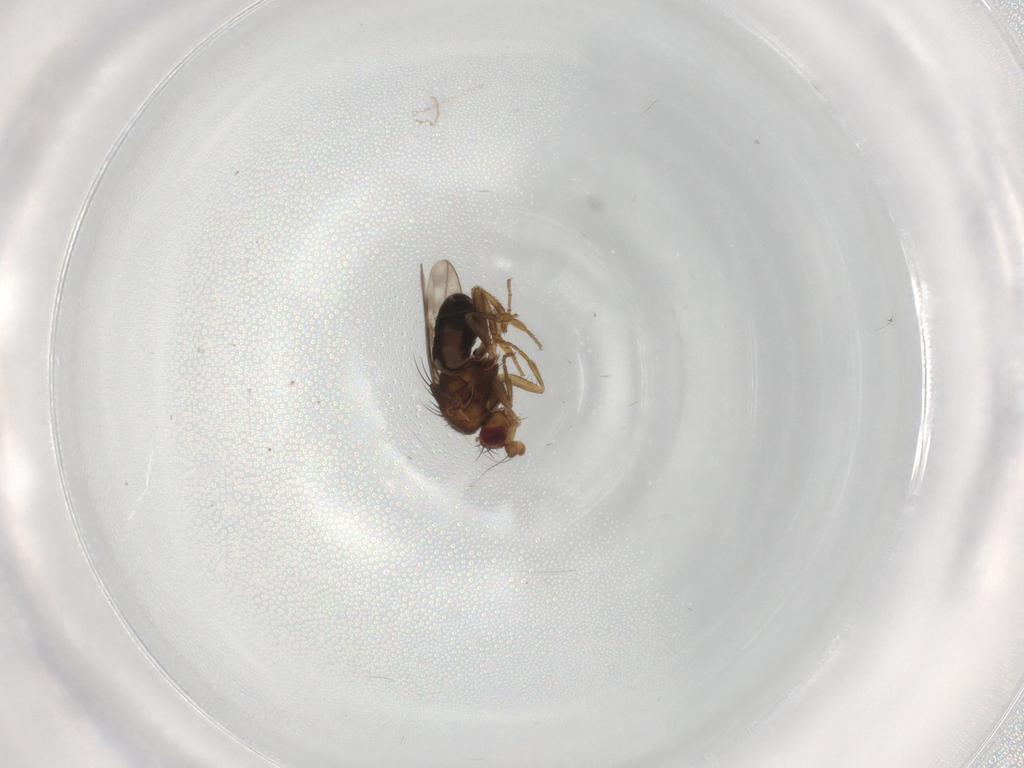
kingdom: Animalia
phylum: Arthropoda
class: Insecta
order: Diptera
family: Sphaeroceridae
